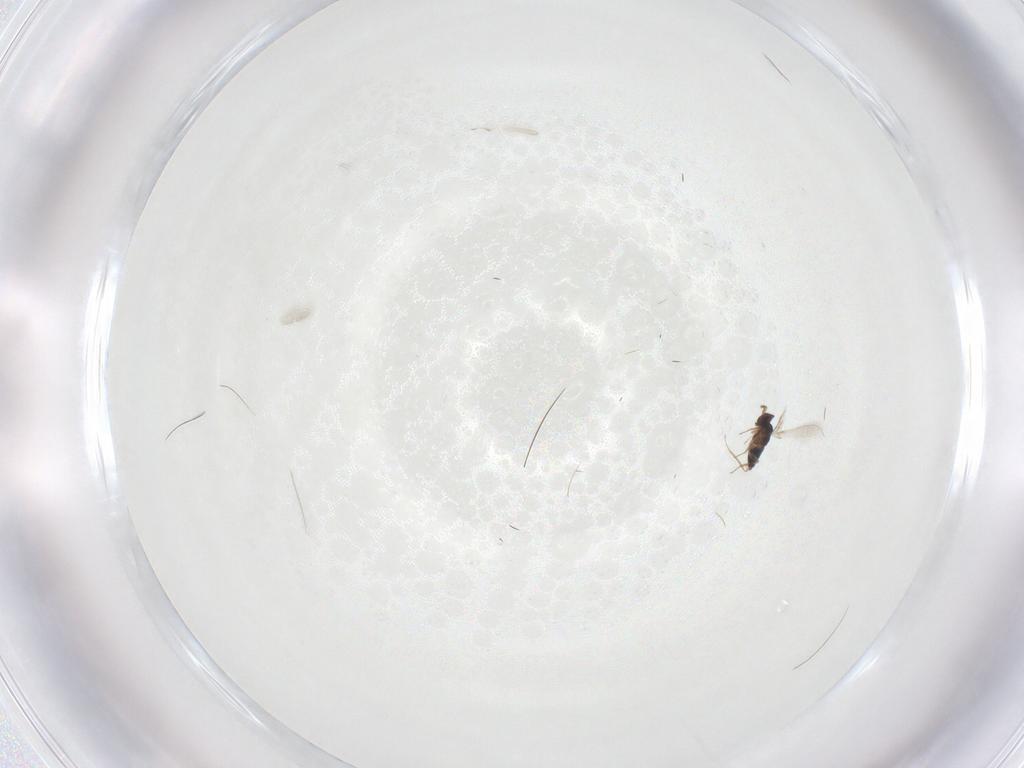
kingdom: Animalia
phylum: Arthropoda
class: Insecta
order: Hymenoptera
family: Mymaridae
